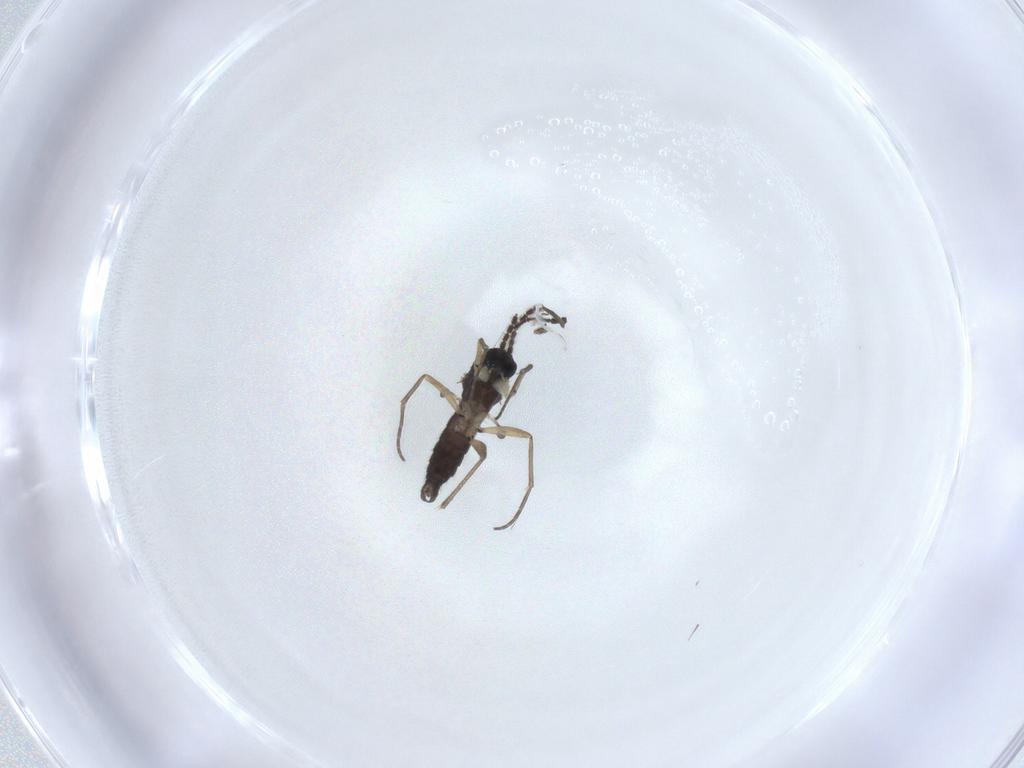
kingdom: Animalia
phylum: Arthropoda
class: Insecta
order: Diptera
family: Sciaridae
